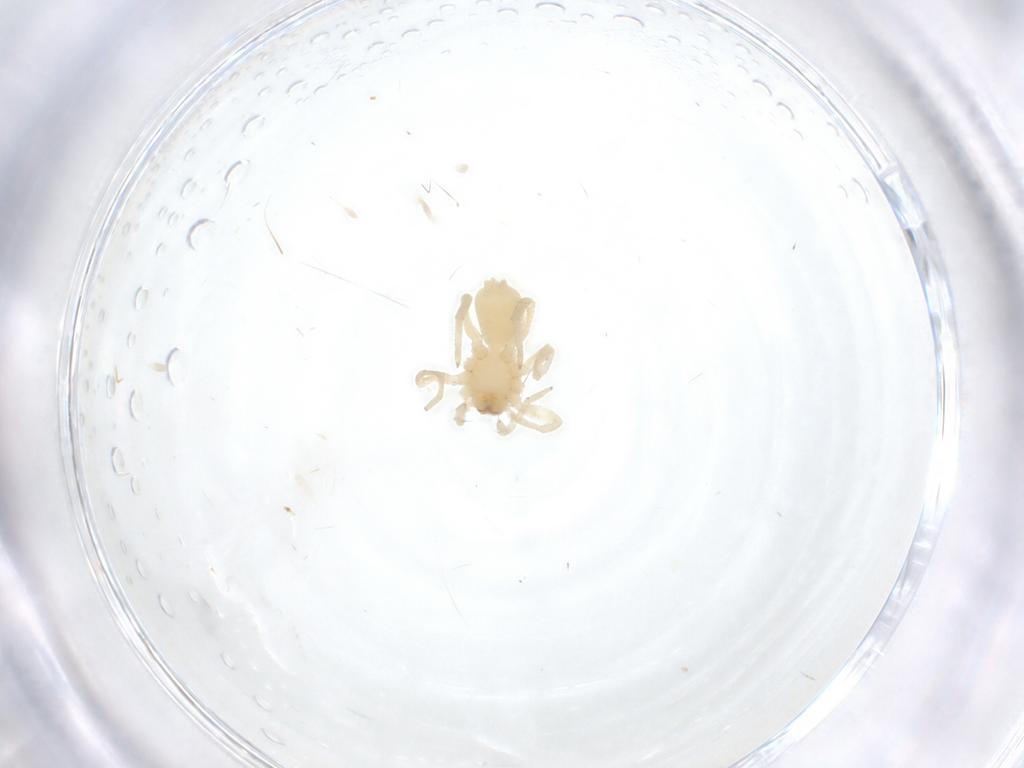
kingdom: Animalia
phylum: Arthropoda
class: Arachnida
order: Araneae
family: Corinnidae
